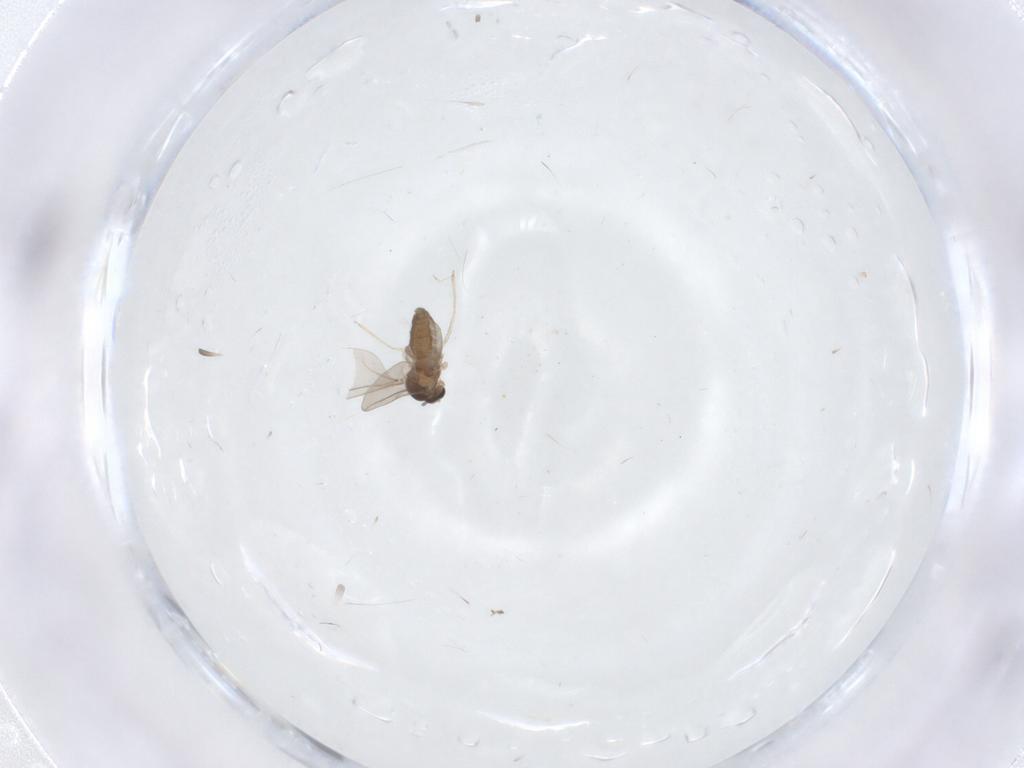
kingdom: Animalia
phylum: Arthropoda
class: Insecta
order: Diptera
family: Cecidomyiidae
